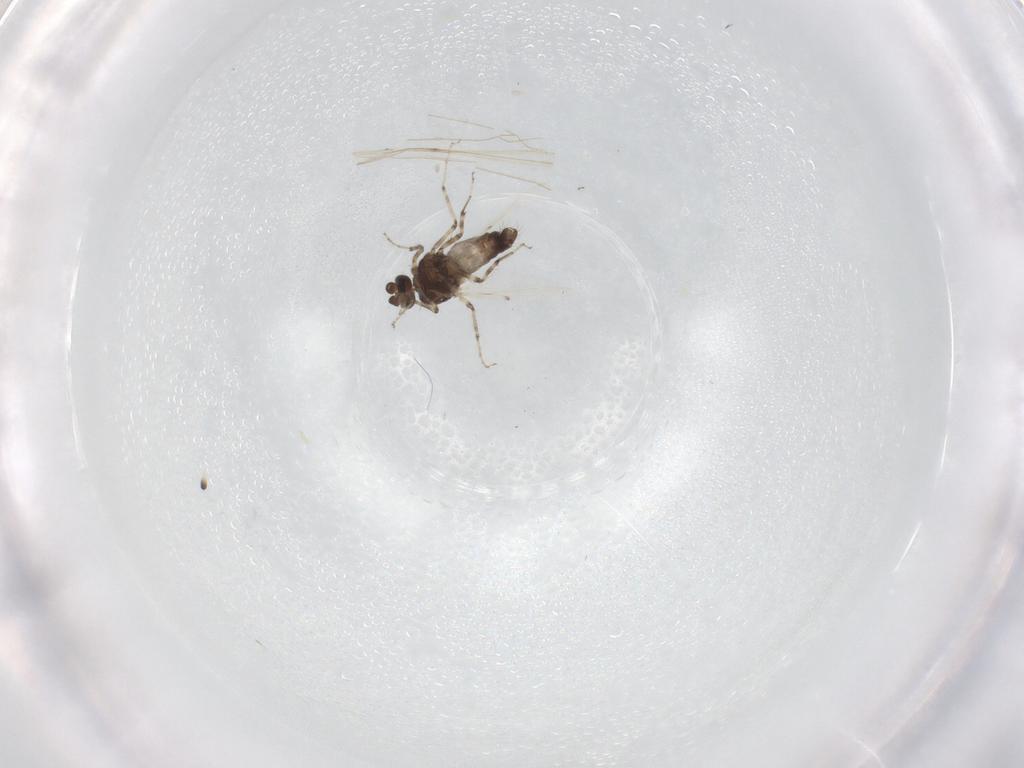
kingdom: Animalia
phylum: Arthropoda
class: Insecta
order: Diptera
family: Ceratopogonidae
